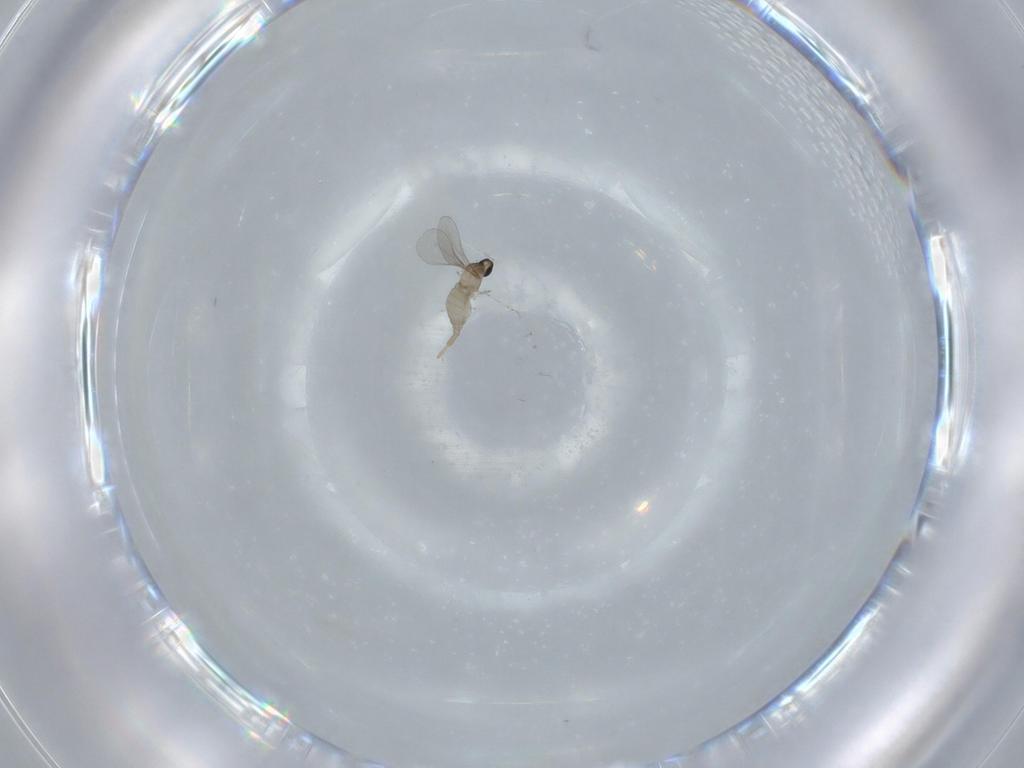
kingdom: Animalia
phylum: Arthropoda
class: Insecta
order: Diptera
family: Cecidomyiidae
